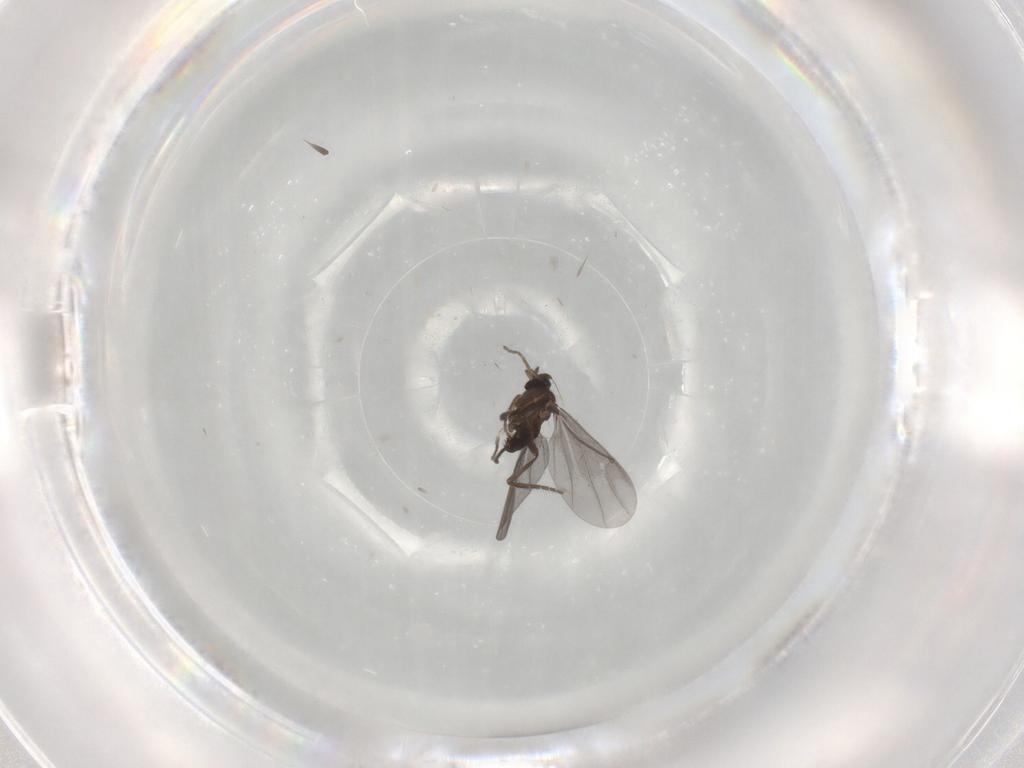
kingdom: Animalia
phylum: Arthropoda
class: Insecta
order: Diptera
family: Phoridae
